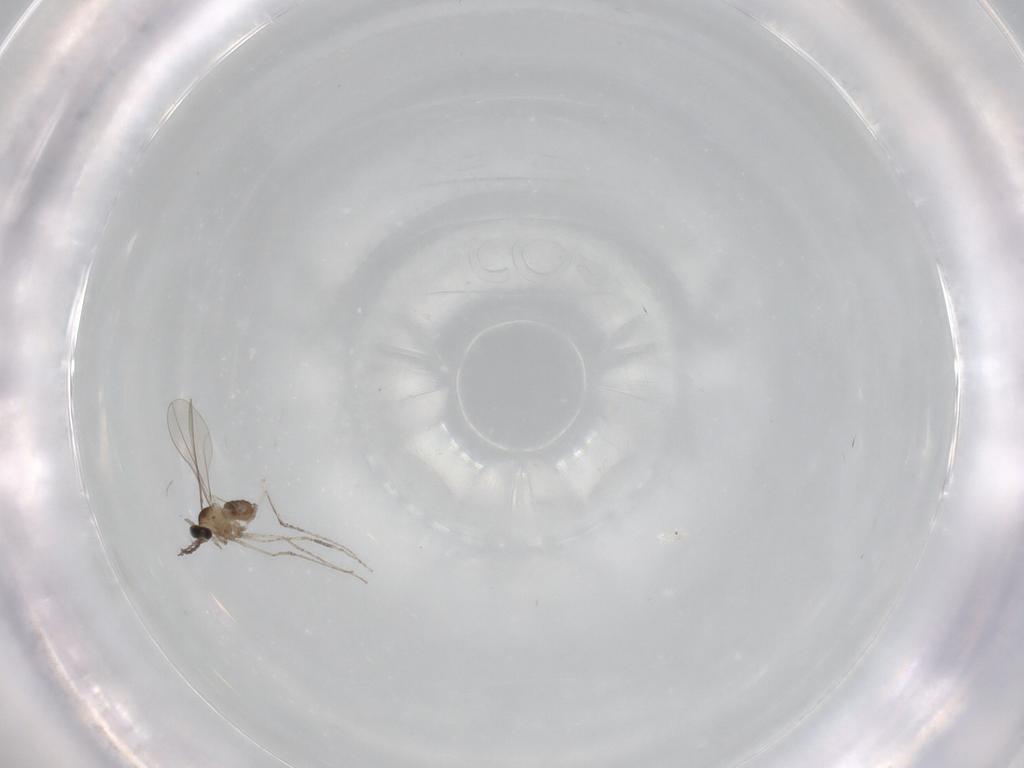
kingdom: Animalia
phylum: Arthropoda
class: Insecta
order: Diptera
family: Cecidomyiidae
